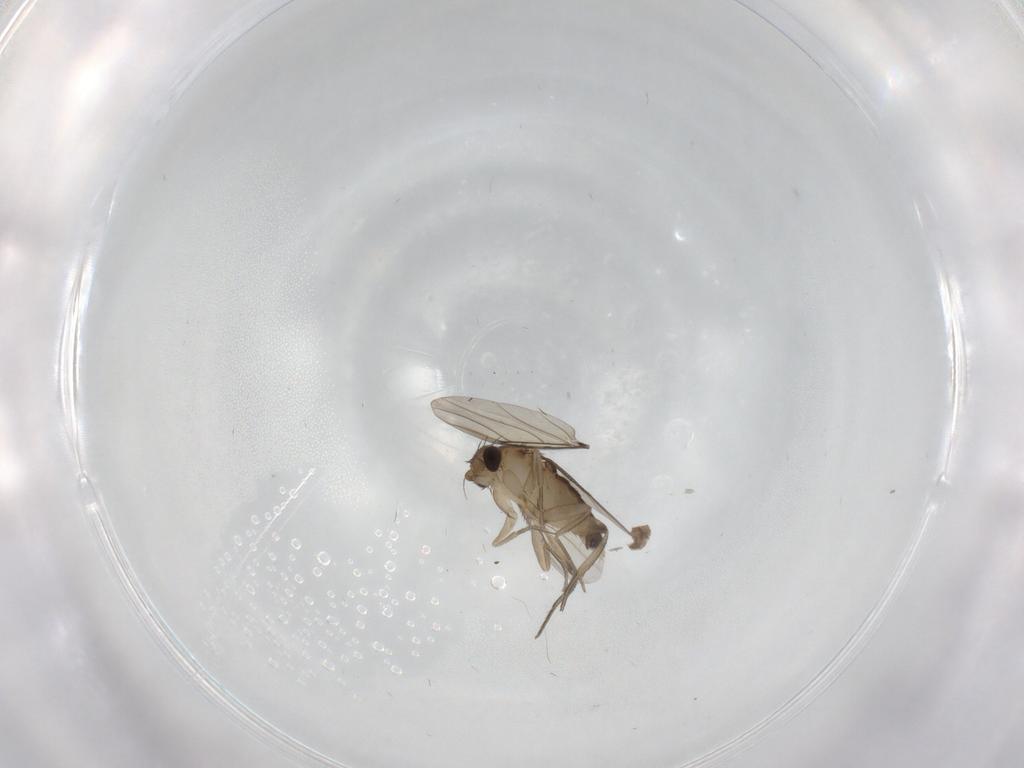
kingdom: Animalia
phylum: Arthropoda
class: Insecta
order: Diptera
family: Phoridae
